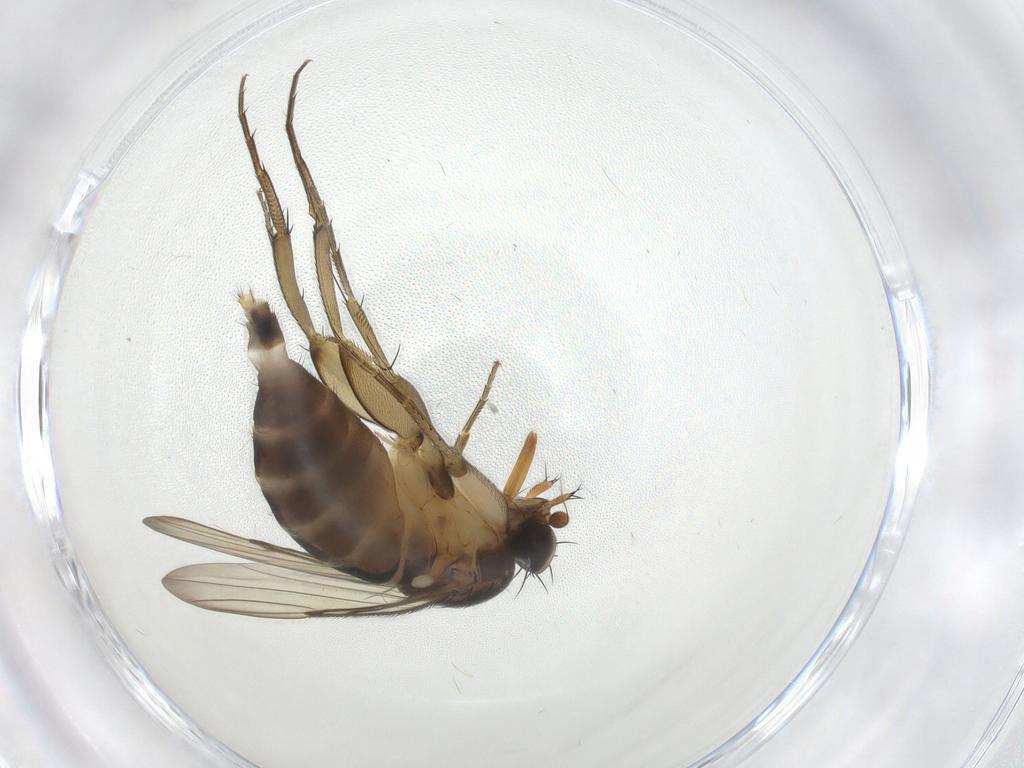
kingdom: Animalia
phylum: Arthropoda
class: Insecta
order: Diptera
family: Phoridae
